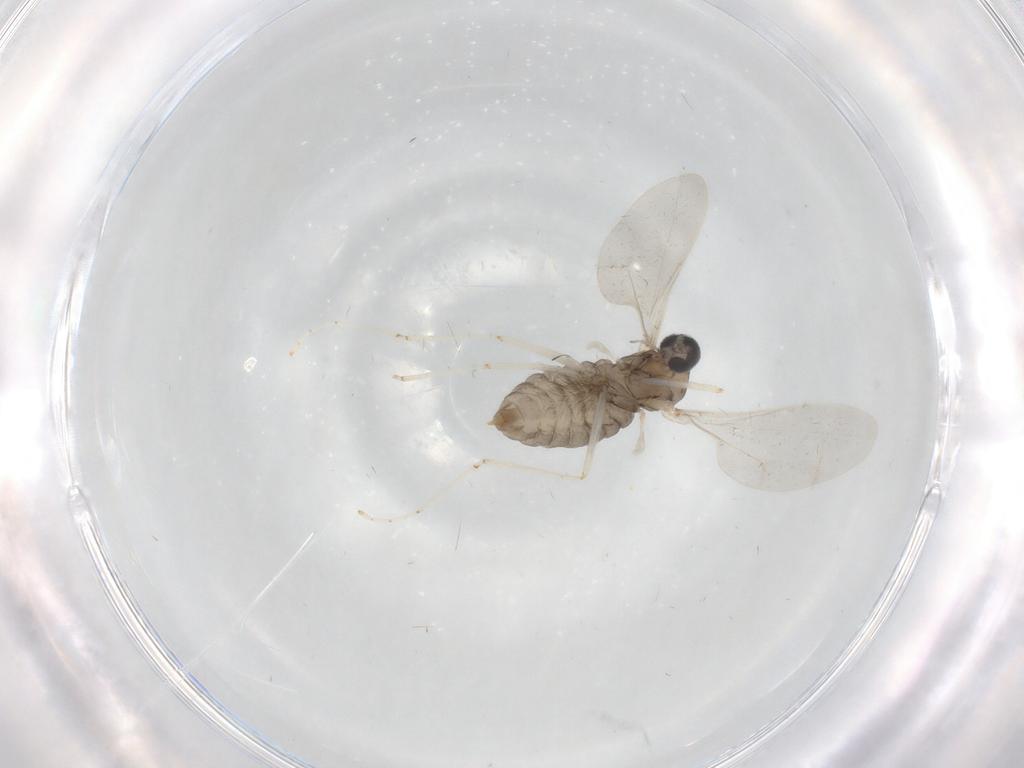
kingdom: Animalia
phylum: Arthropoda
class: Insecta
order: Diptera
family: Cecidomyiidae
